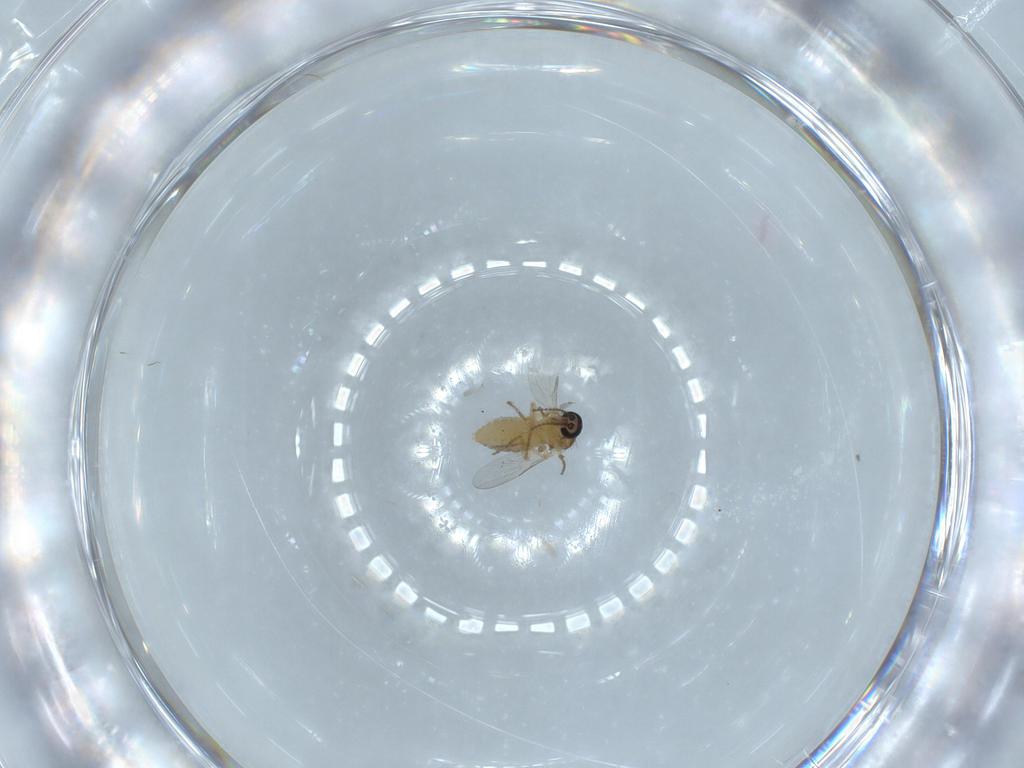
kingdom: Animalia
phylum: Arthropoda
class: Insecta
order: Diptera
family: Ceratopogonidae
